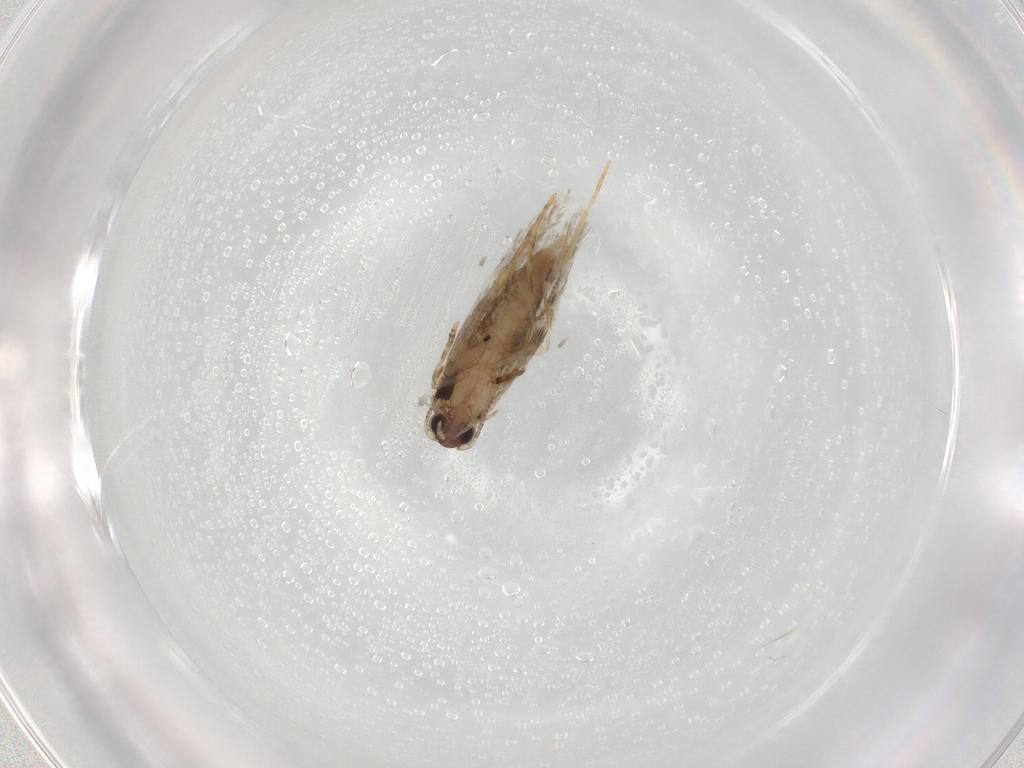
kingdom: Animalia
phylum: Arthropoda
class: Insecta
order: Lepidoptera
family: Tineidae
